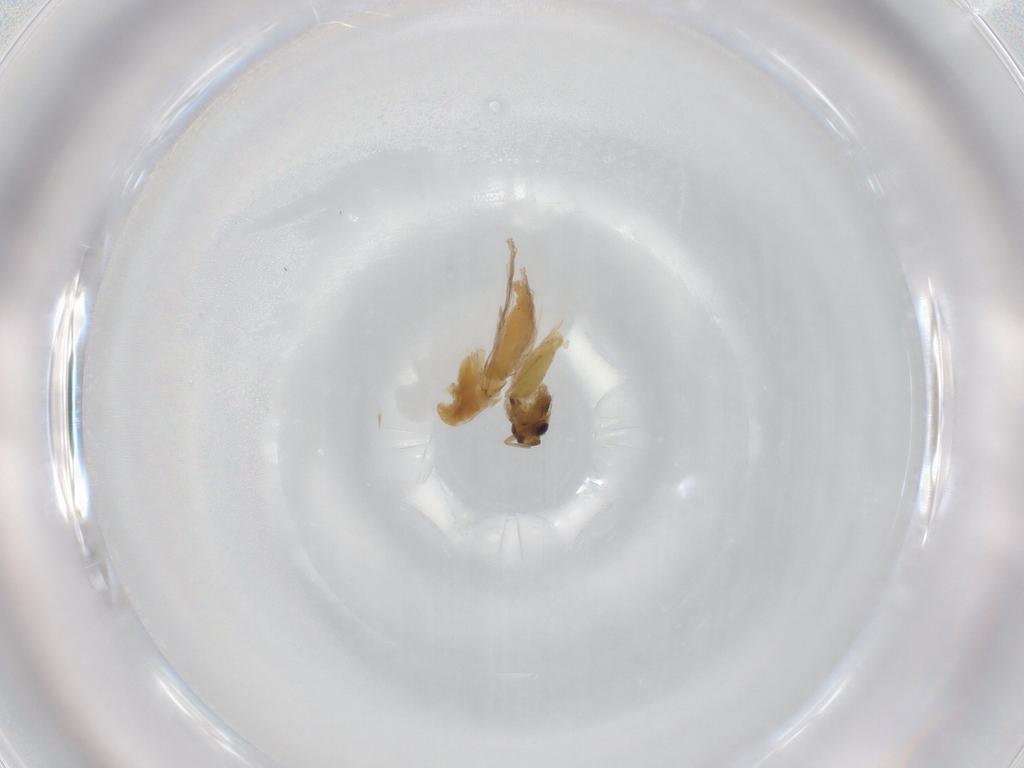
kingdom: Animalia
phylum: Arthropoda
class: Insecta
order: Diptera
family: Chironomidae
